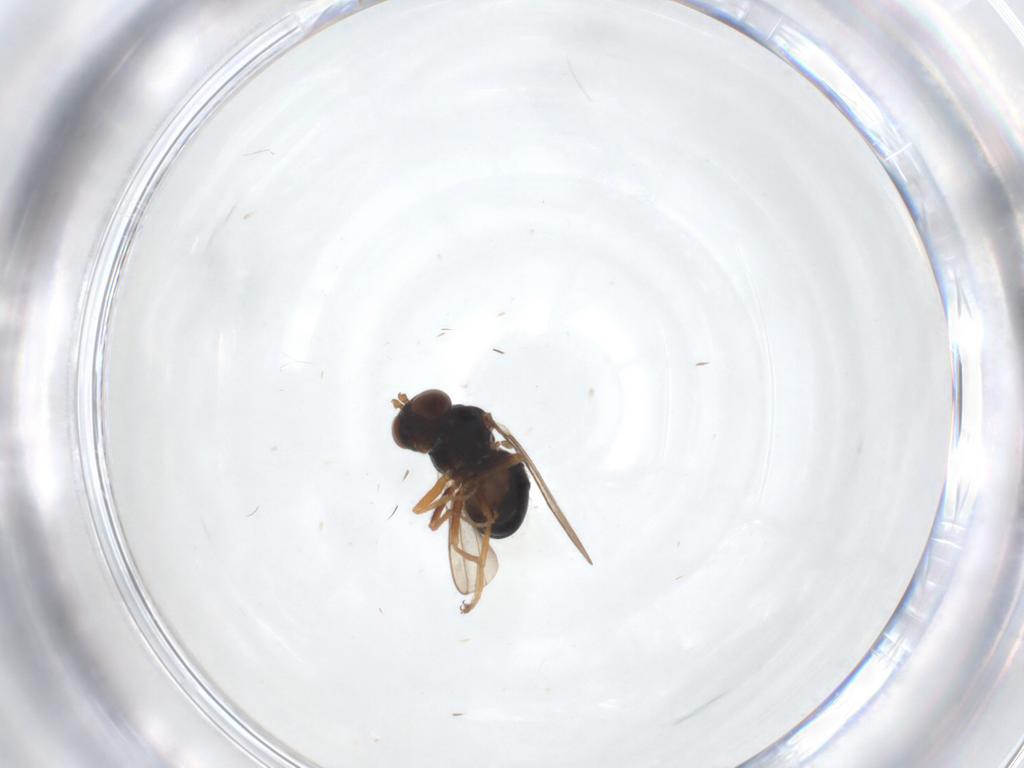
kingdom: Animalia
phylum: Arthropoda
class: Insecta
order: Diptera
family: Ephydridae
